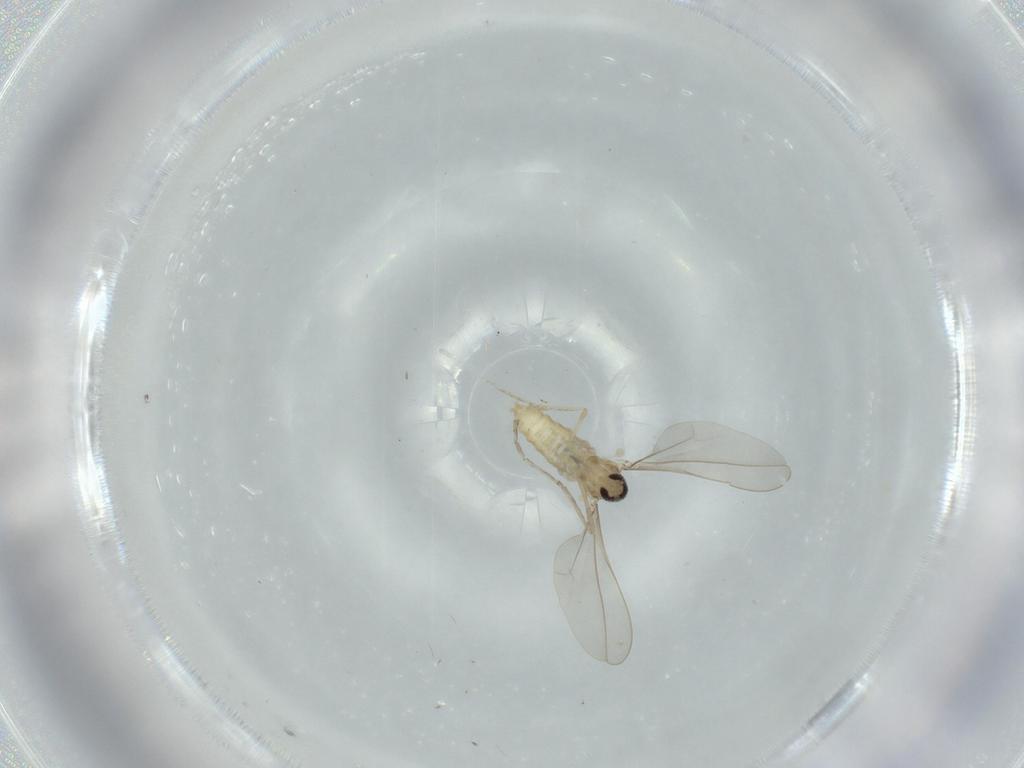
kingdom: Animalia
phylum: Arthropoda
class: Insecta
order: Diptera
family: Cecidomyiidae
